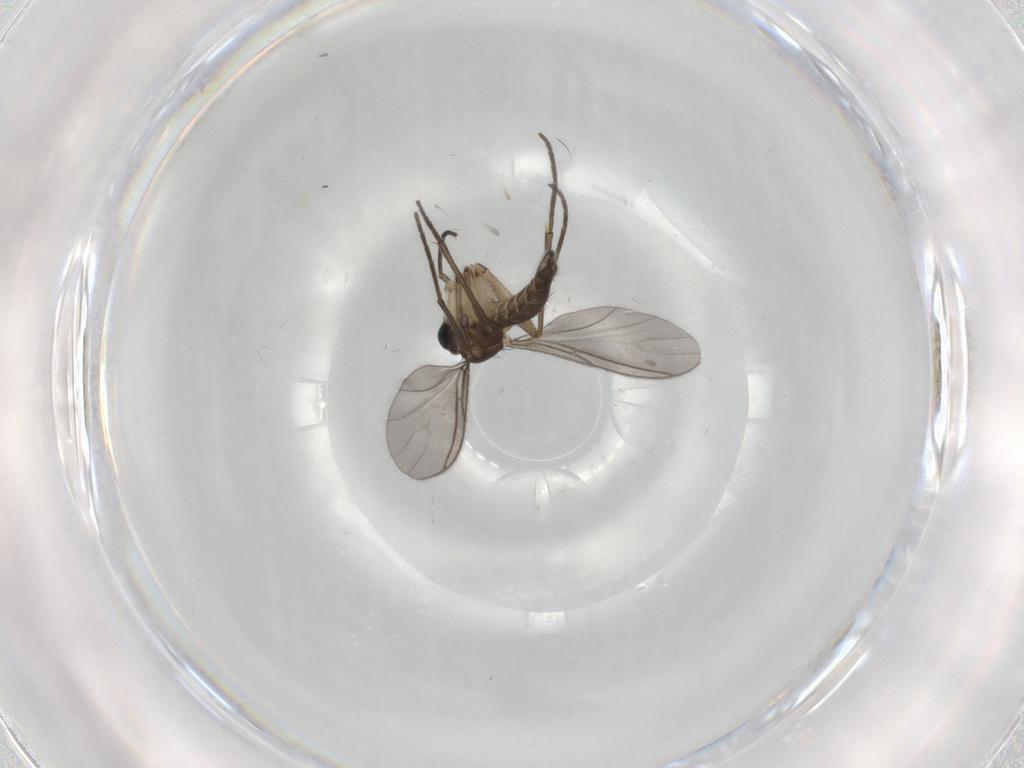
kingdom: Animalia
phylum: Arthropoda
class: Insecta
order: Diptera
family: Sciaridae
